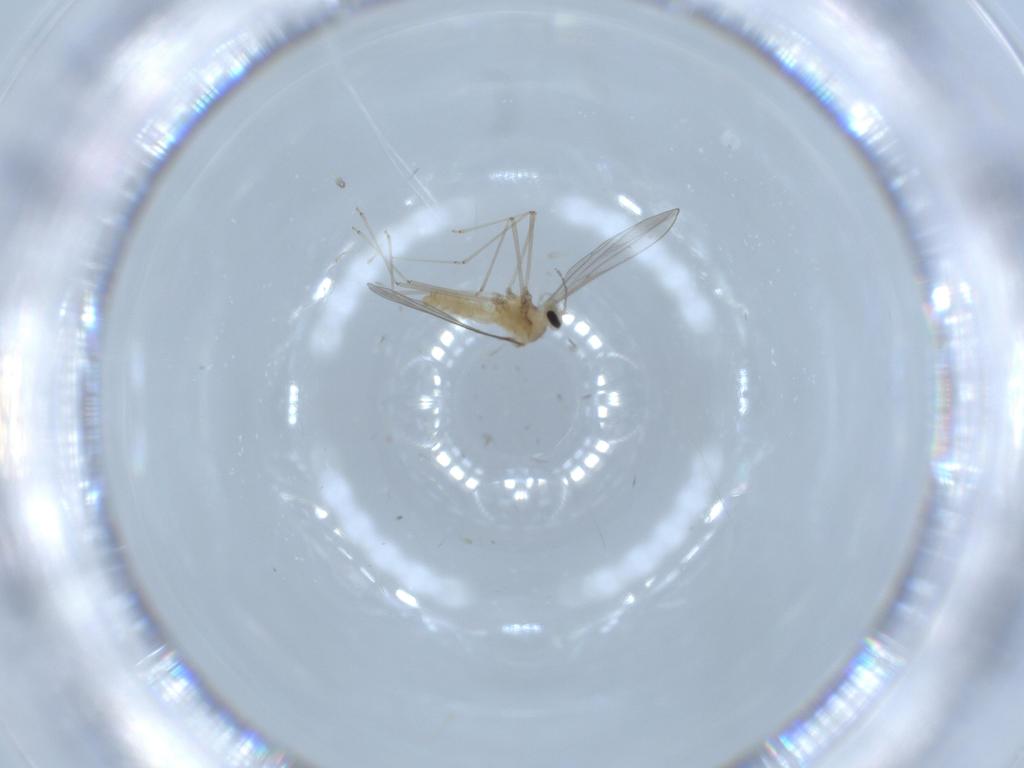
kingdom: Animalia
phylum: Arthropoda
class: Insecta
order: Diptera
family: Cecidomyiidae
